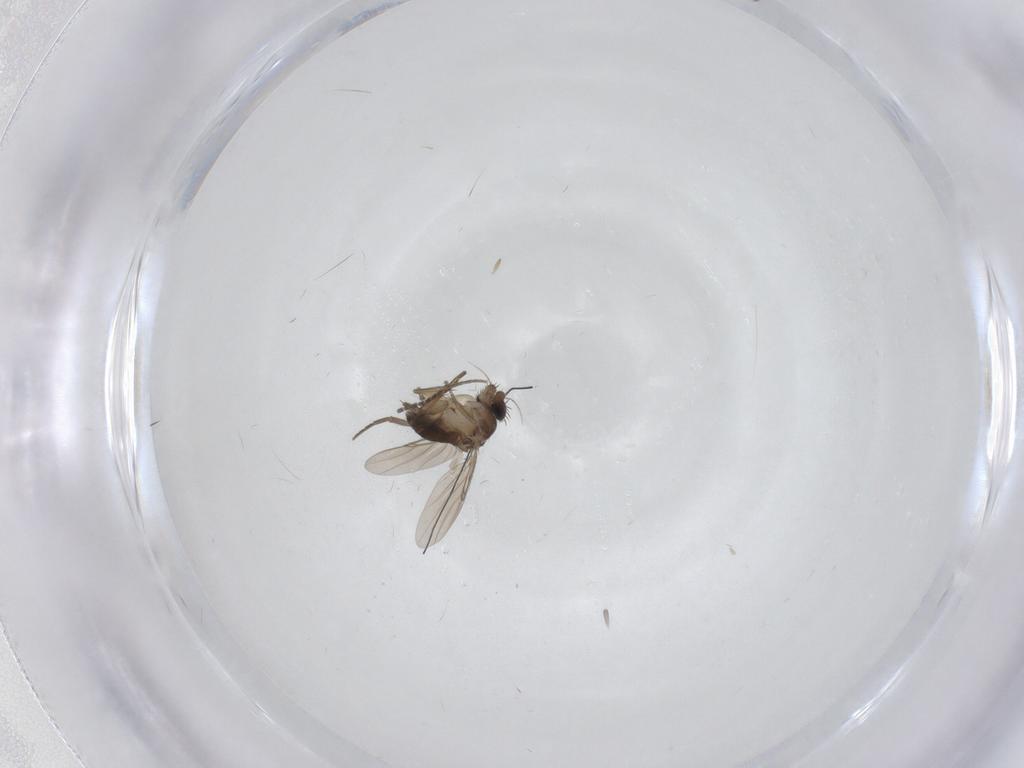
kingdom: Animalia
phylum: Arthropoda
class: Insecta
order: Diptera
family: Phoridae
